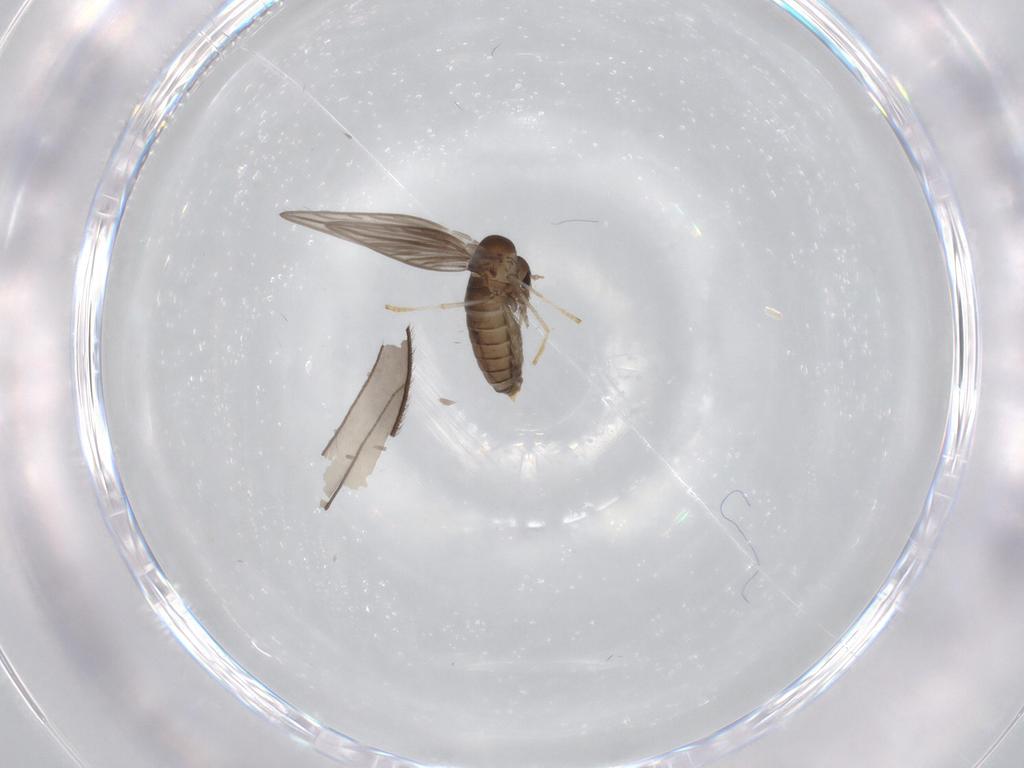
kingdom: Animalia
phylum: Arthropoda
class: Insecta
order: Diptera
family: Psychodidae
